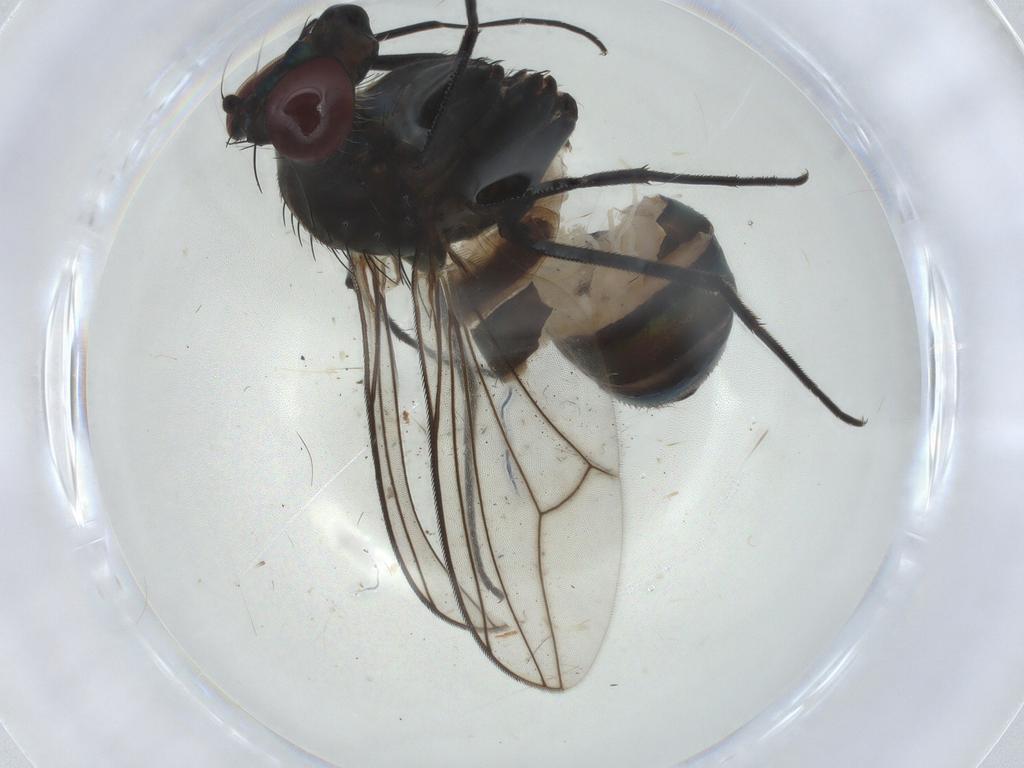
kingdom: Animalia
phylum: Arthropoda
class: Insecta
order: Diptera
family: Dolichopodidae
